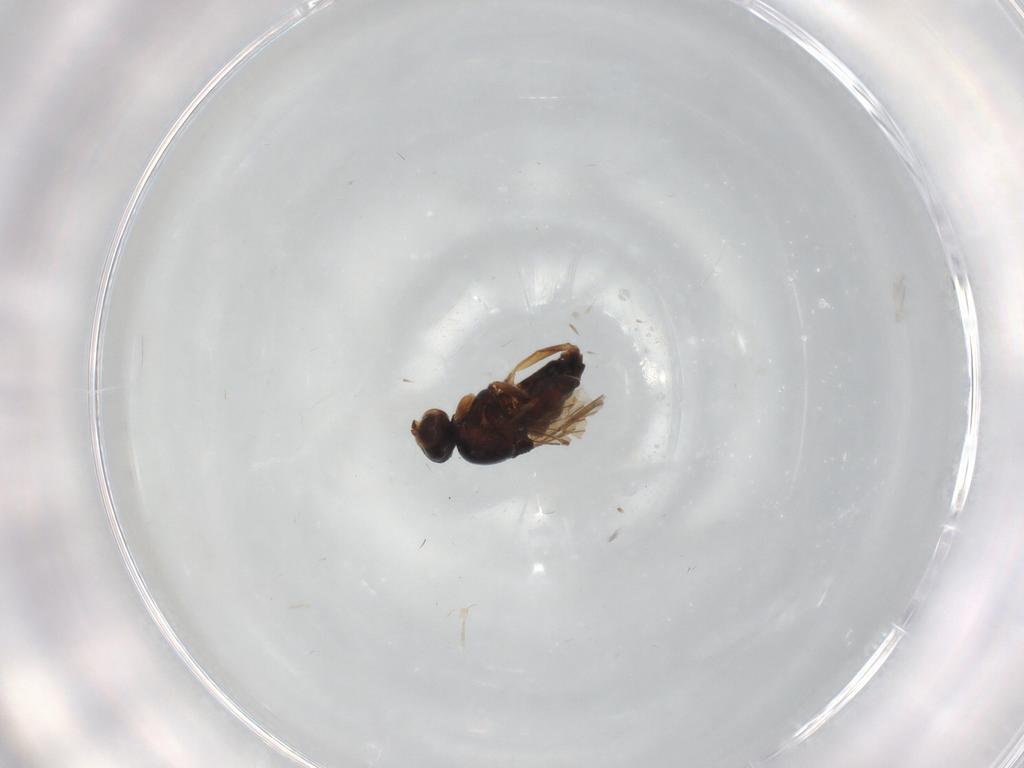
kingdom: Animalia
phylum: Arthropoda
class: Insecta
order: Diptera
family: Chloropidae
